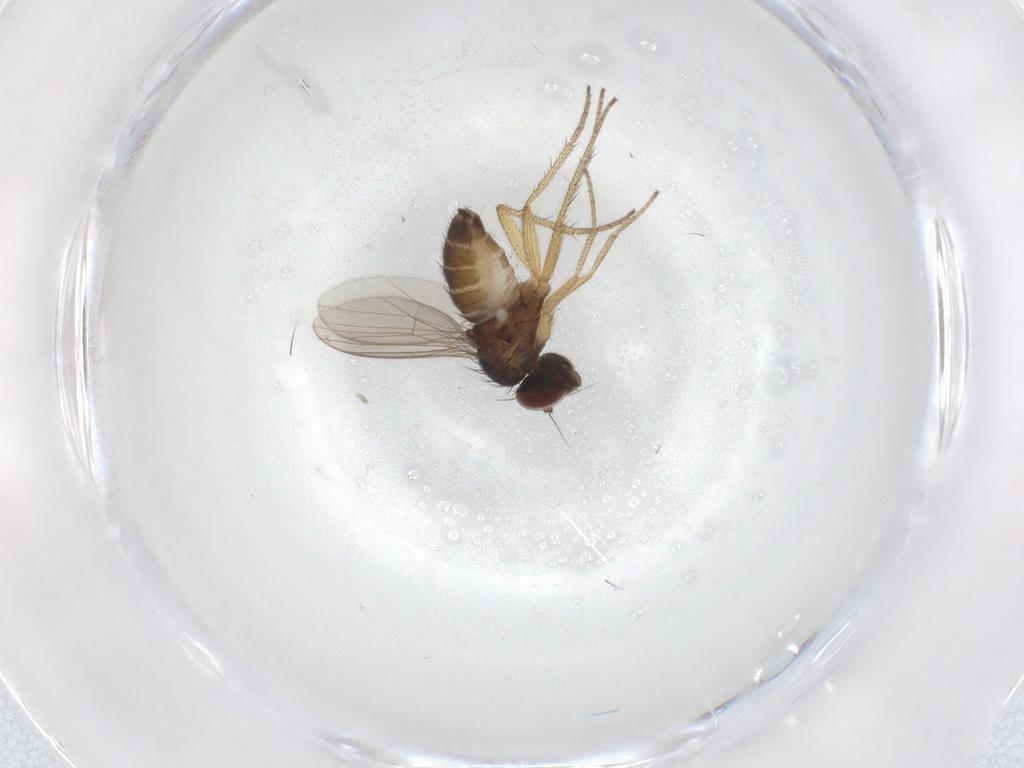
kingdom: Animalia
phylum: Arthropoda
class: Insecta
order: Diptera
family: Dolichopodidae
